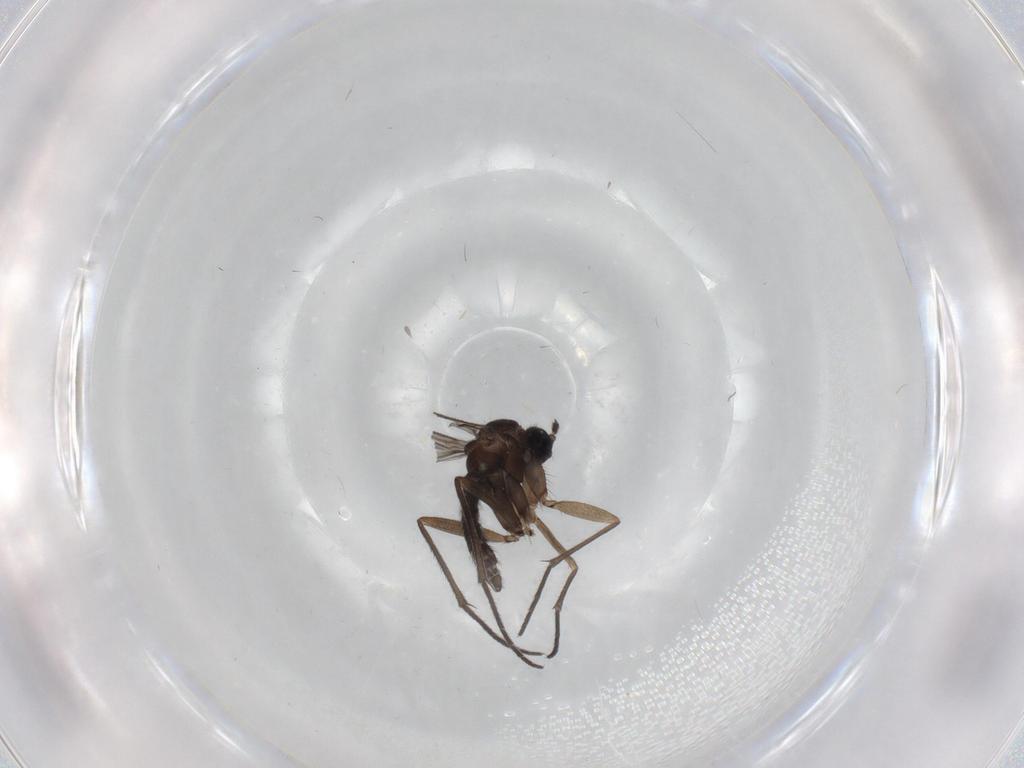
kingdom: Animalia
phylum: Arthropoda
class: Insecta
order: Diptera
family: Sciaridae
